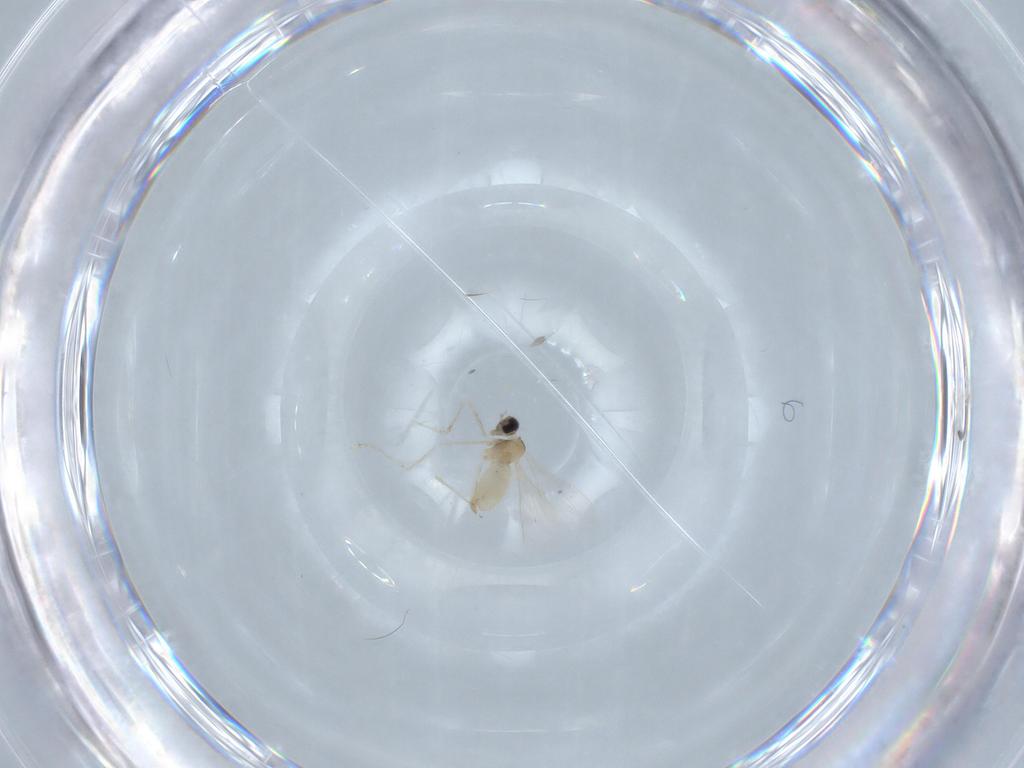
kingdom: Animalia
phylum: Arthropoda
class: Insecta
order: Diptera
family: Cecidomyiidae
